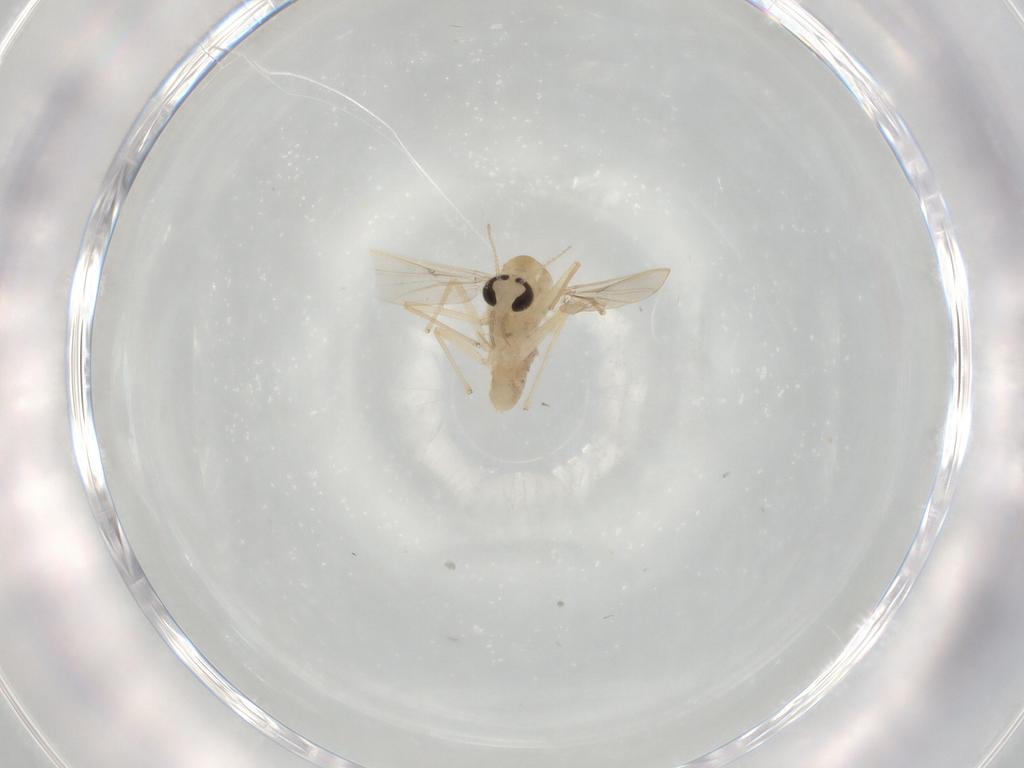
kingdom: Animalia
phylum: Arthropoda
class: Insecta
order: Diptera
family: Chironomidae
